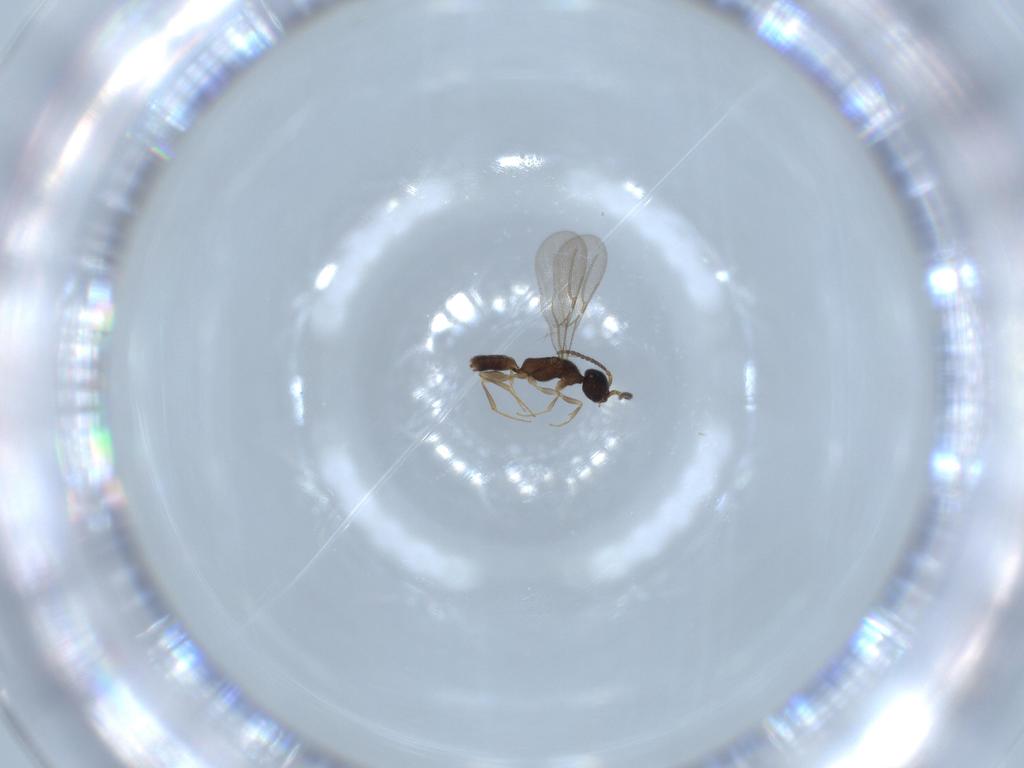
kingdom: Animalia
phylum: Arthropoda
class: Insecta
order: Hymenoptera
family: Bethylidae
